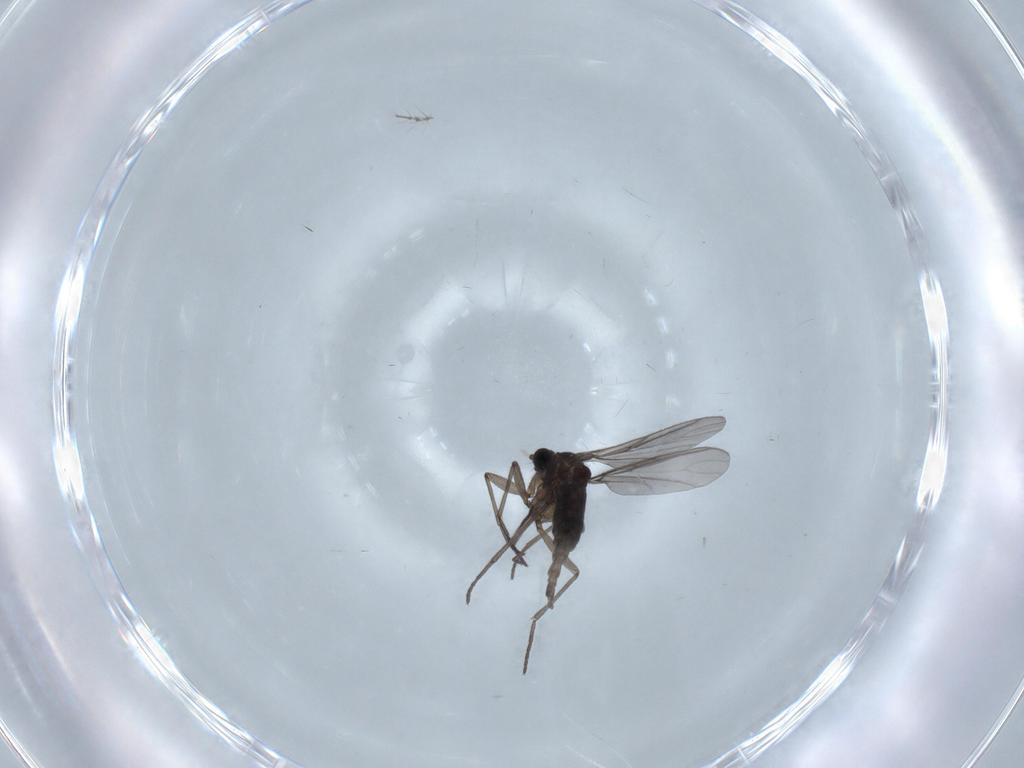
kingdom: Animalia
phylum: Arthropoda
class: Insecta
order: Diptera
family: Chironomidae
